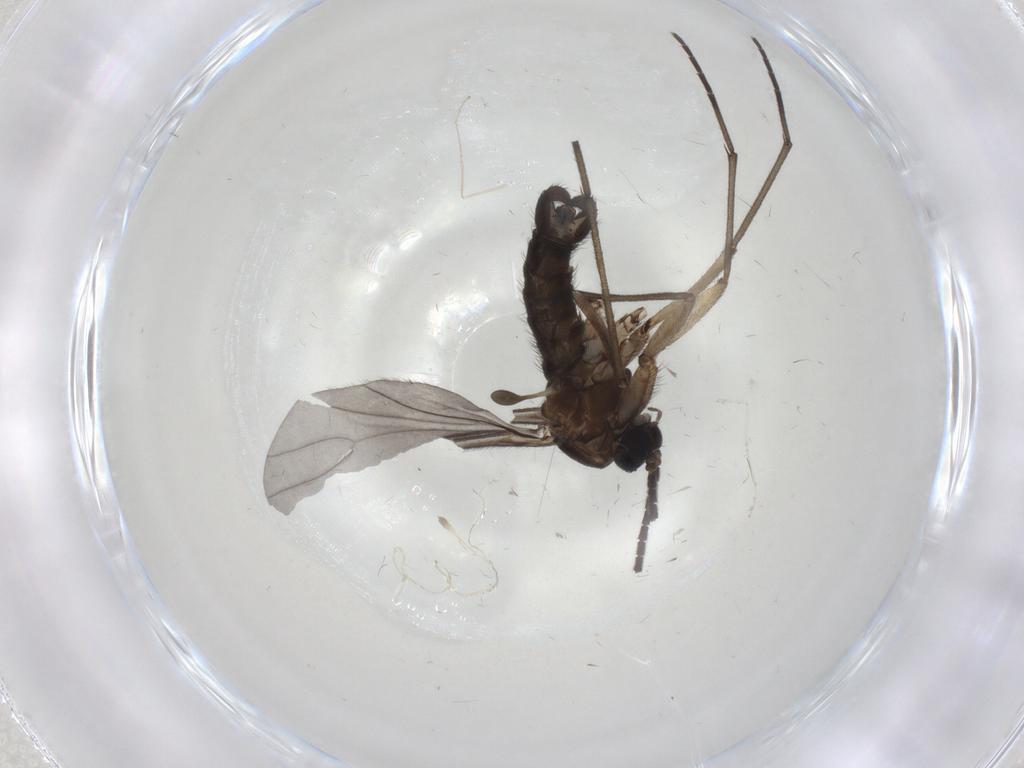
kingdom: Animalia
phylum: Arthropoda
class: Insecta
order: Diptera
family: Sciaridae
